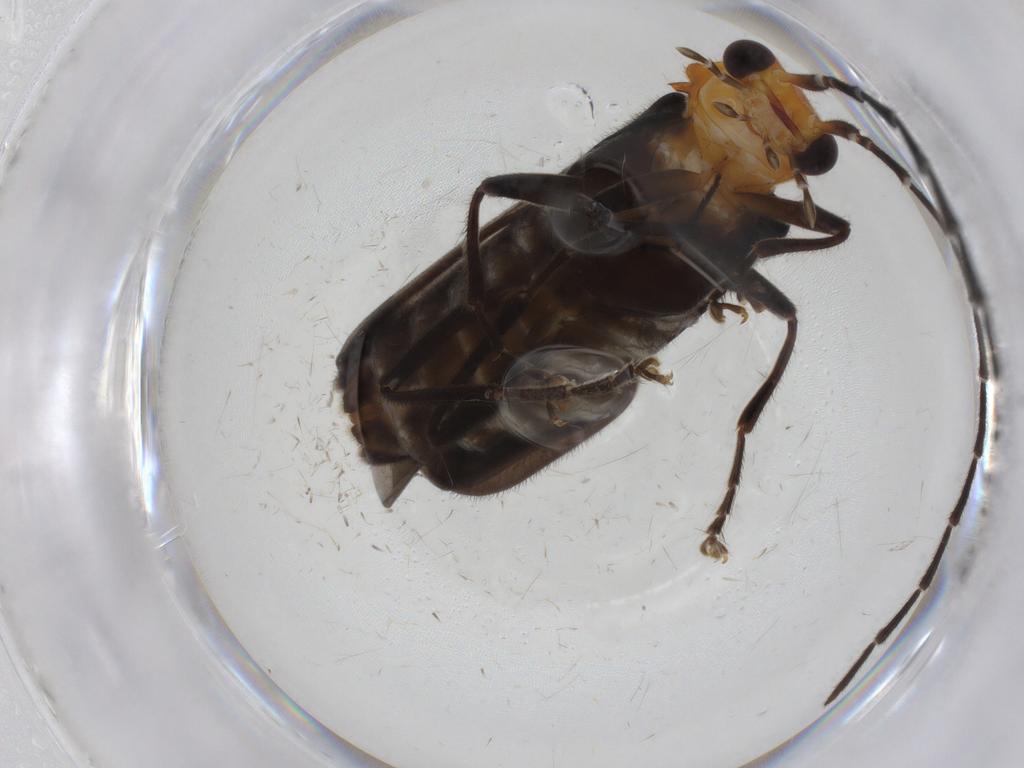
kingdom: Animalia
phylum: Arthropoda
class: Insecta
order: Coleoptera
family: Cantharidae
